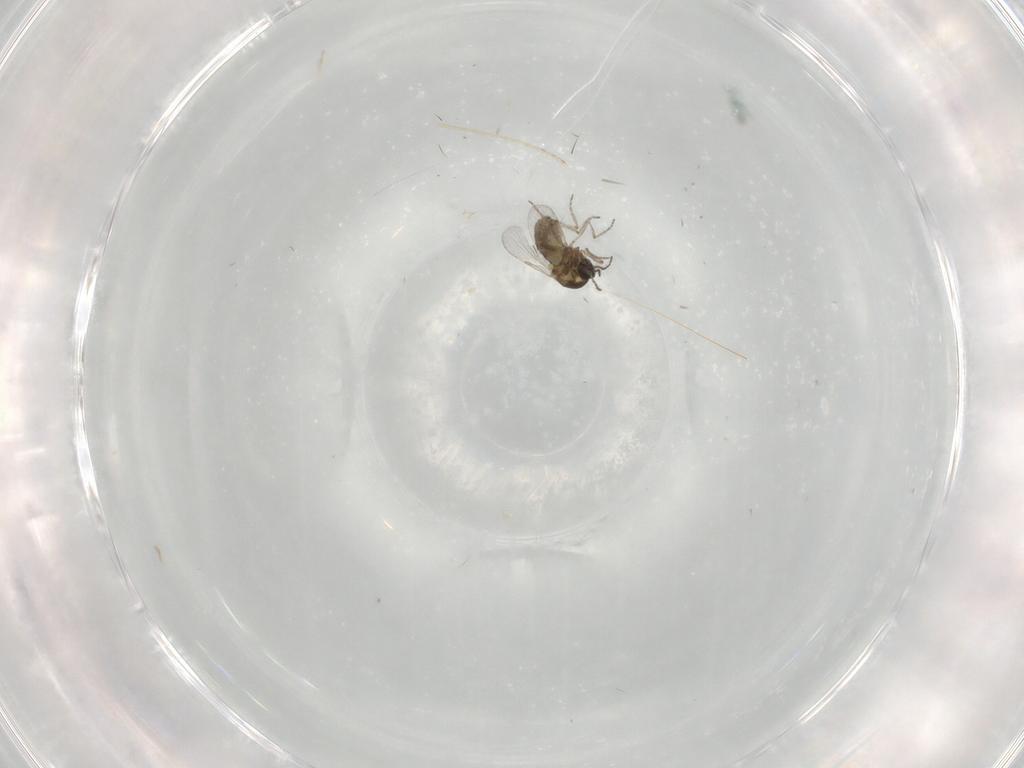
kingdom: Animalia
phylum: Arthropoda
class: Insecta
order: Diptera
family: Ceratopogonidae
